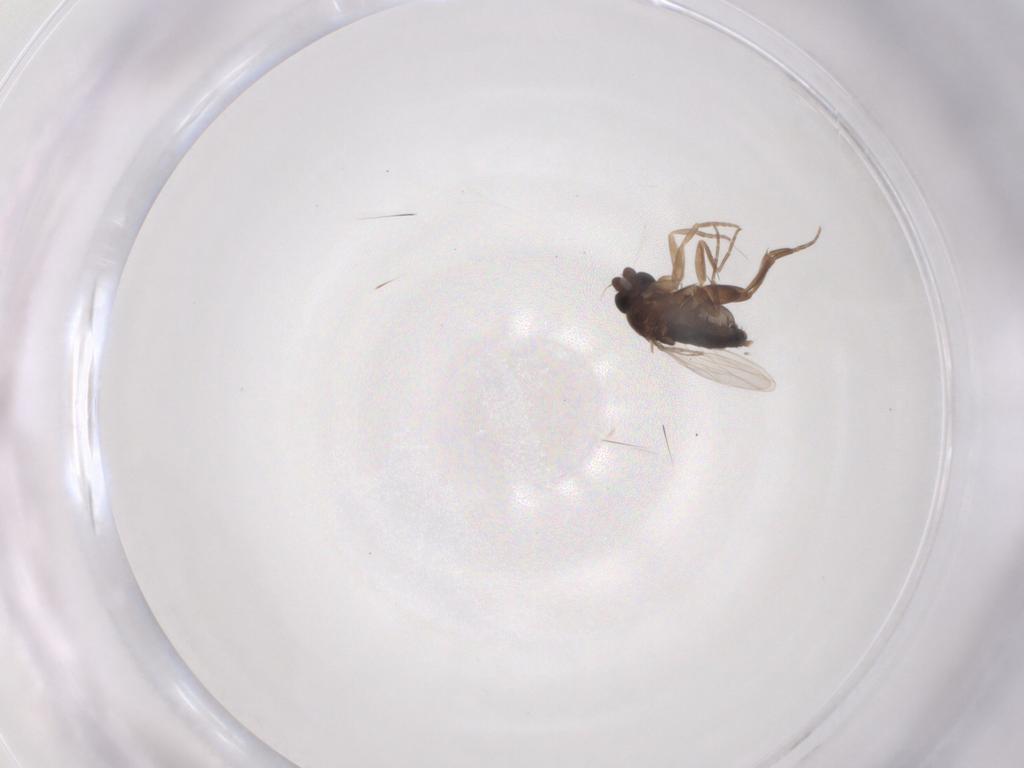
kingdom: Animalia
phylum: Arthropoda
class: Insecta
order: Diptera
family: Phoridae
